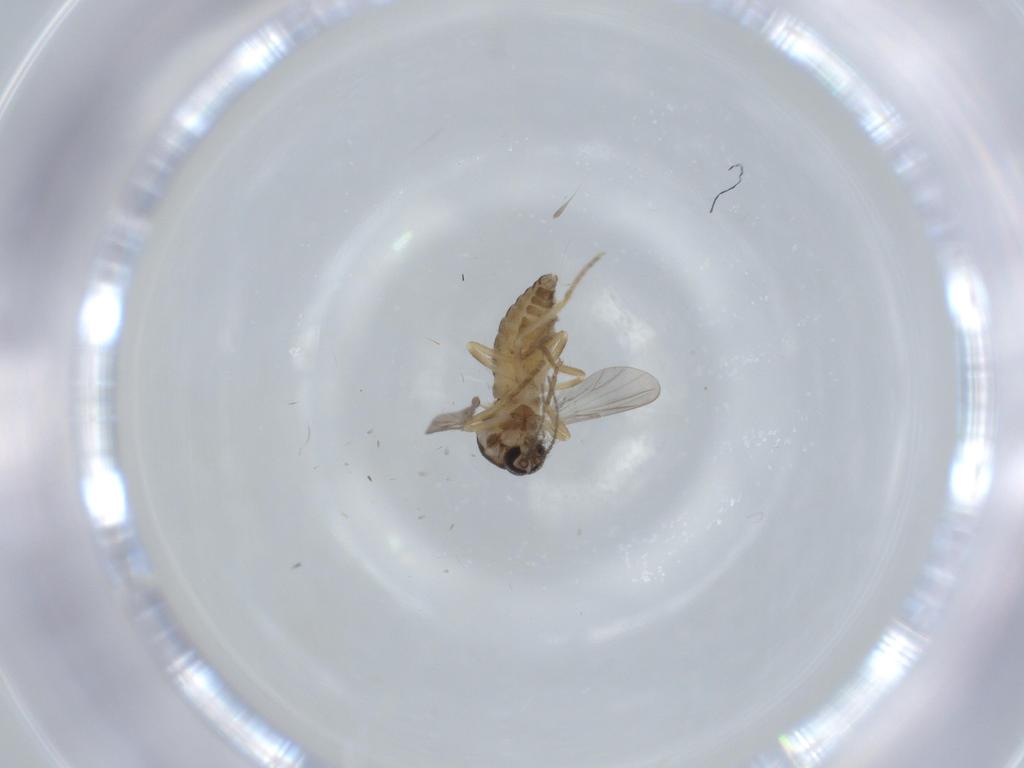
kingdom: Animalia
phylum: Arthropoda
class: Insecta
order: Diptera
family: Ceratopogonidae
